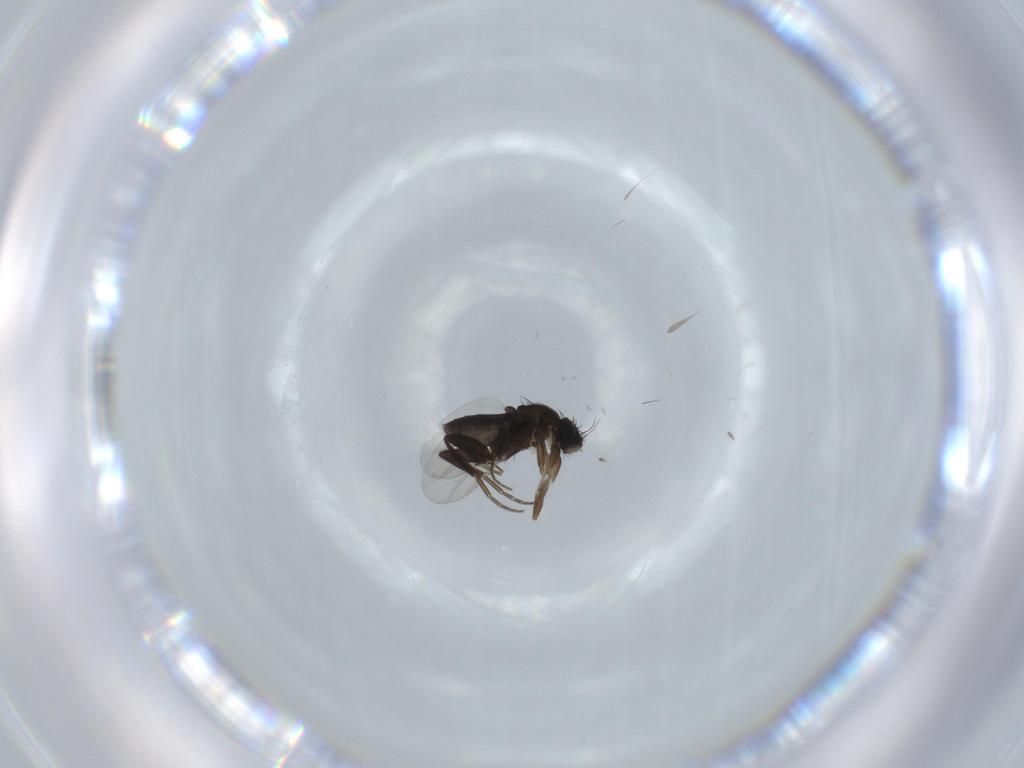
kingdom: Animalia
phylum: Arthropoda
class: Insecta
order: Diptera
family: Phoridae
